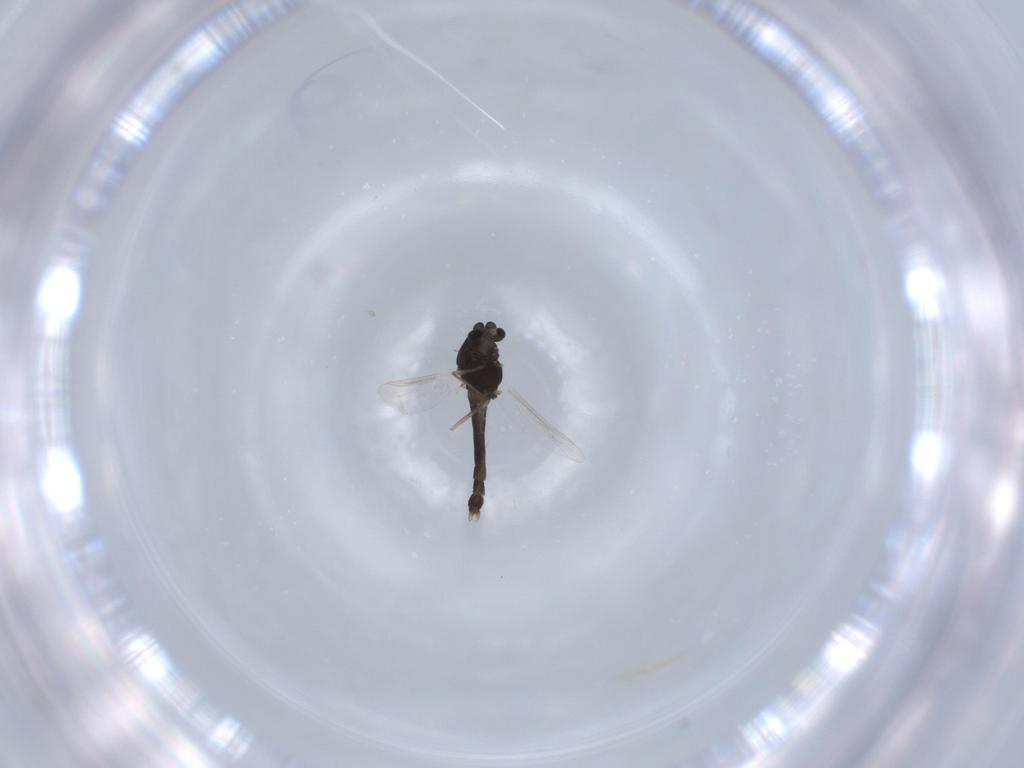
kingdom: Animalia
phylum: Arthropoda
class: Insecta
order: Diptera
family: Chironomidae
